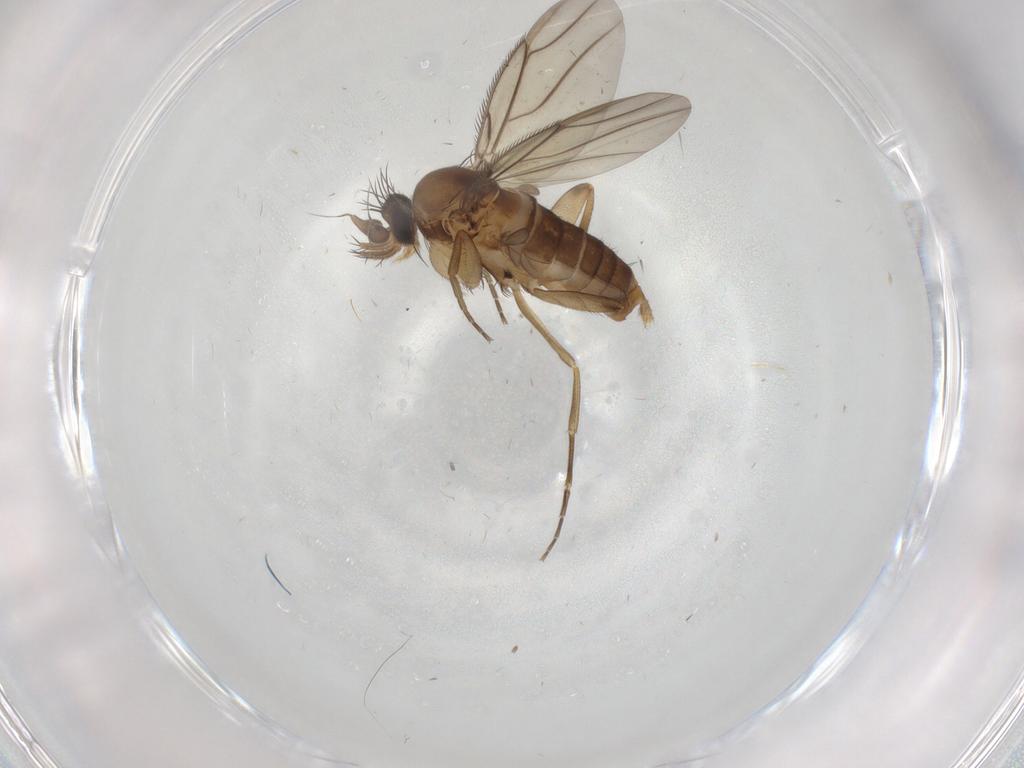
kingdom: Animalia
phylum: Arthropoda
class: Insecta
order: Diptera
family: Phoridae
